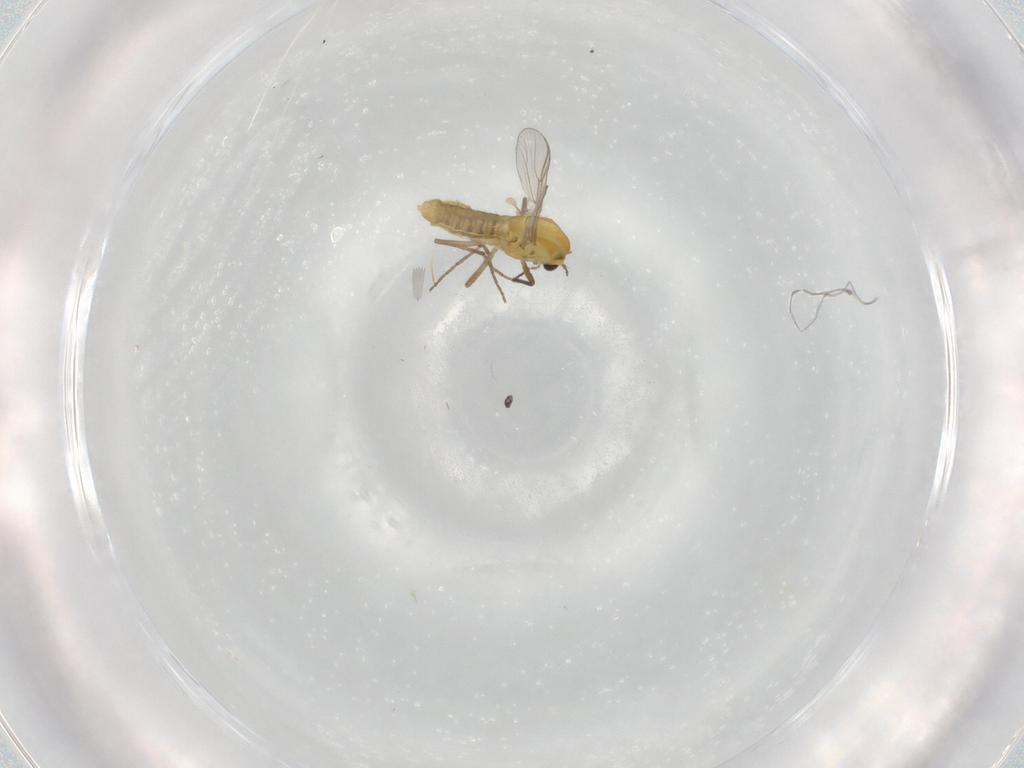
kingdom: Animalia
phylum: Arthropoda
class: Insecta
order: Diptera
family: Chironomidae
